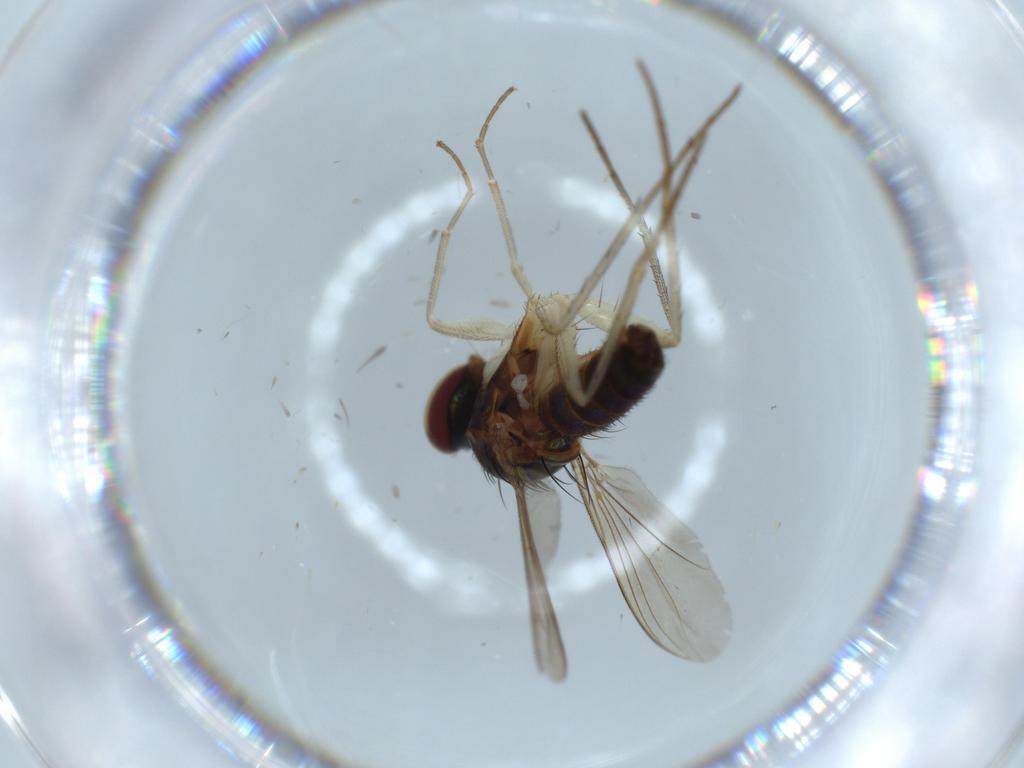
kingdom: Animalia
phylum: Arthropoda
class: Insecta
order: Diptera
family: Dolichopodidae
